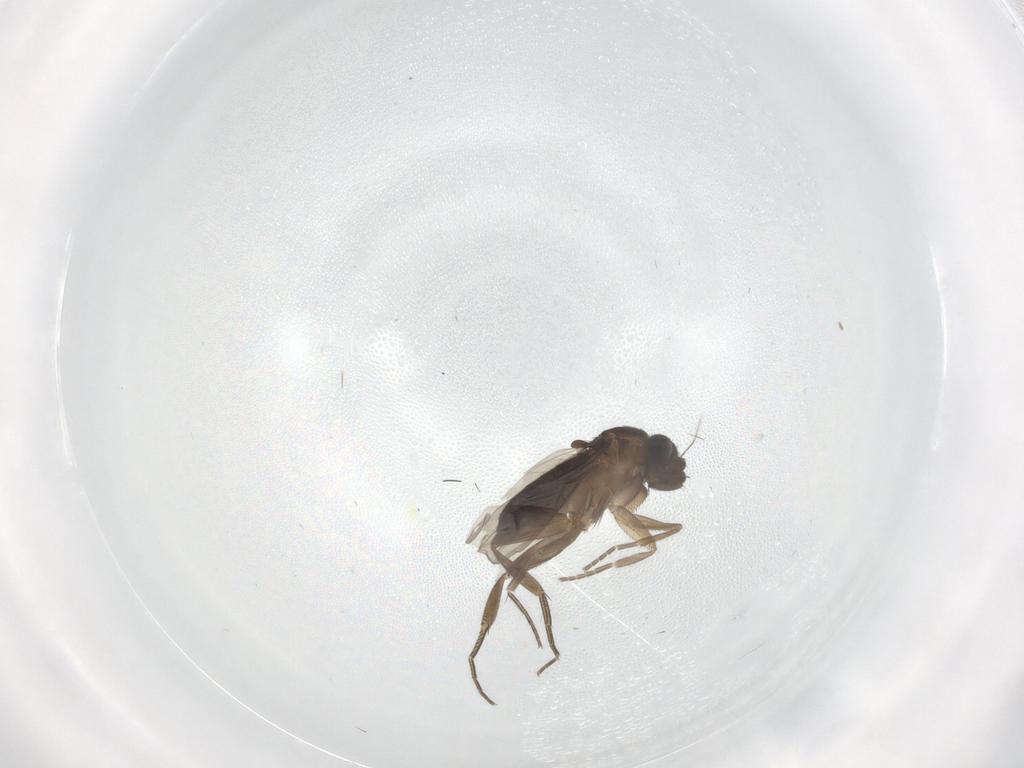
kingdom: Animalia
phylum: Arthropoda
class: Insecta
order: Diptera
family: Phoridae
